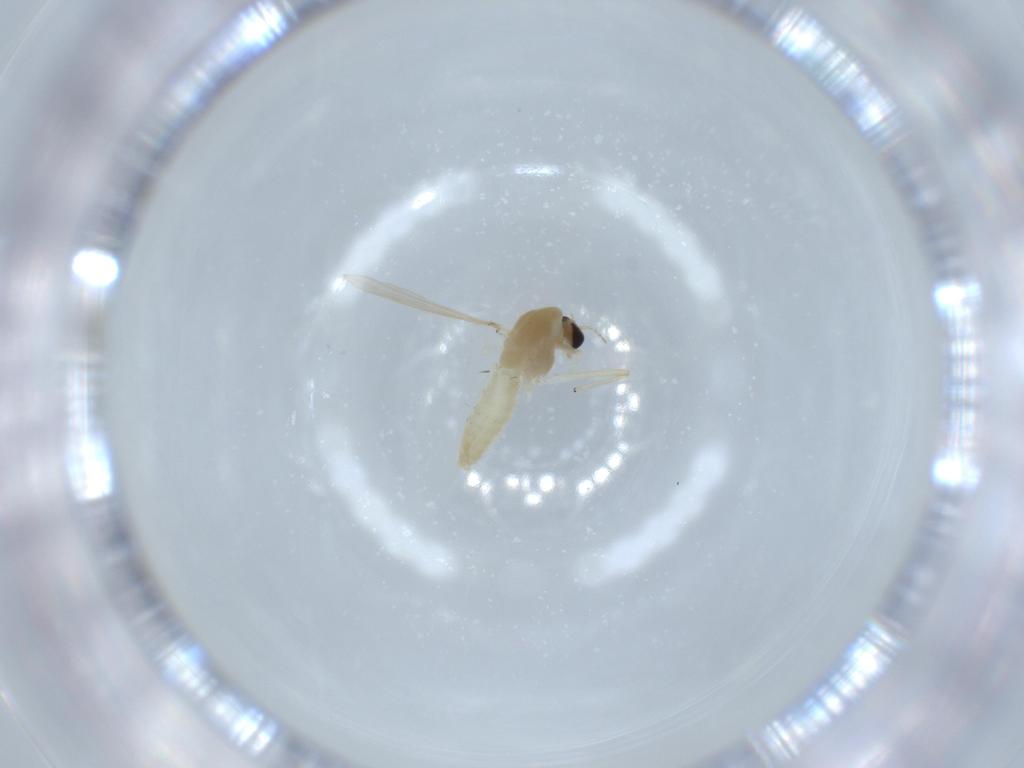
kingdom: Animalia
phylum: Arthropoda
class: Insecta
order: Diptera
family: Chironomidae
